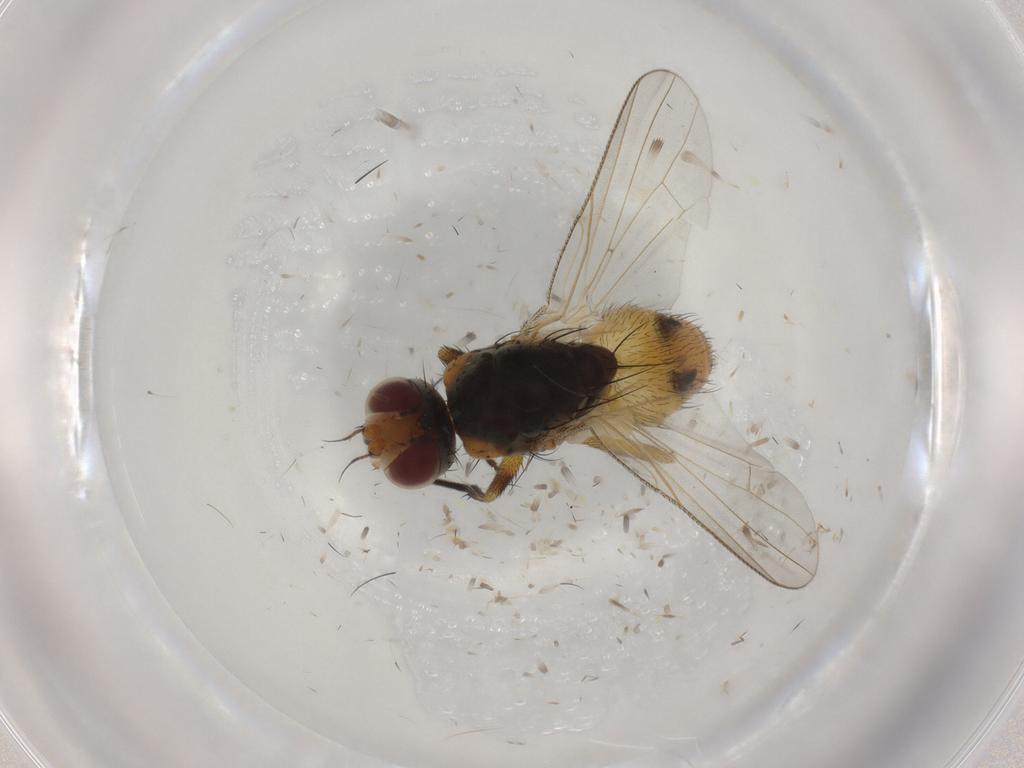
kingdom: Animalia
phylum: Arthropoda
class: Insecta
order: Diptera
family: Muscidae
